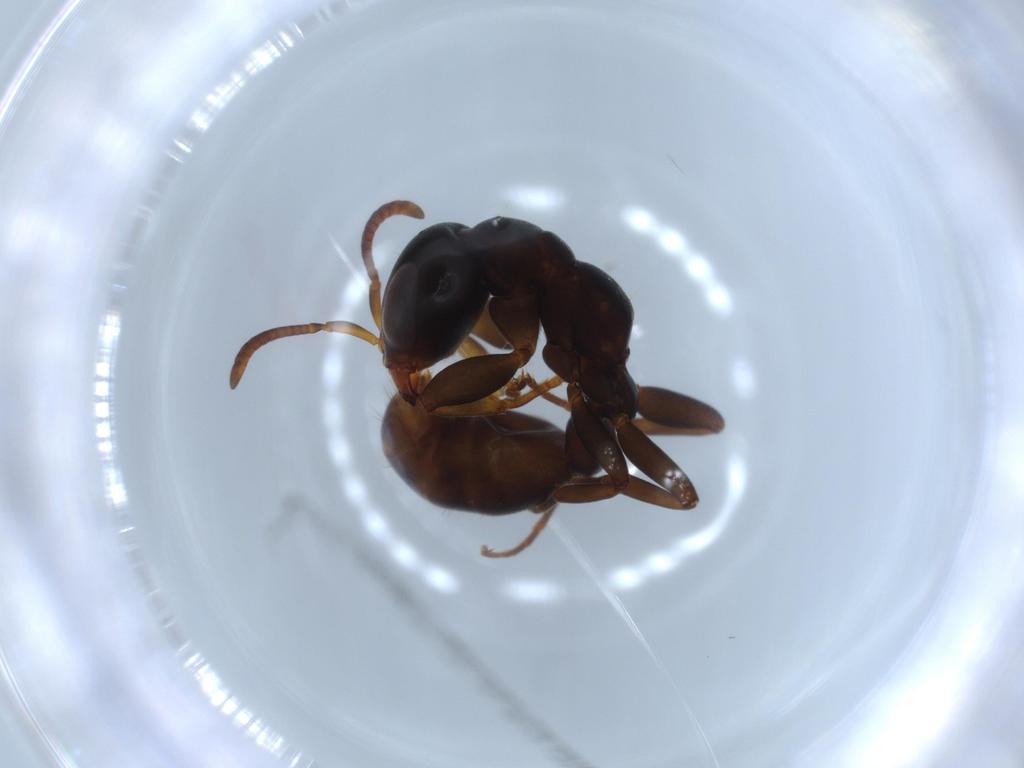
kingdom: Animalia
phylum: Arthropoda
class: Insecta
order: Hymenoptera
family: Formicidae
